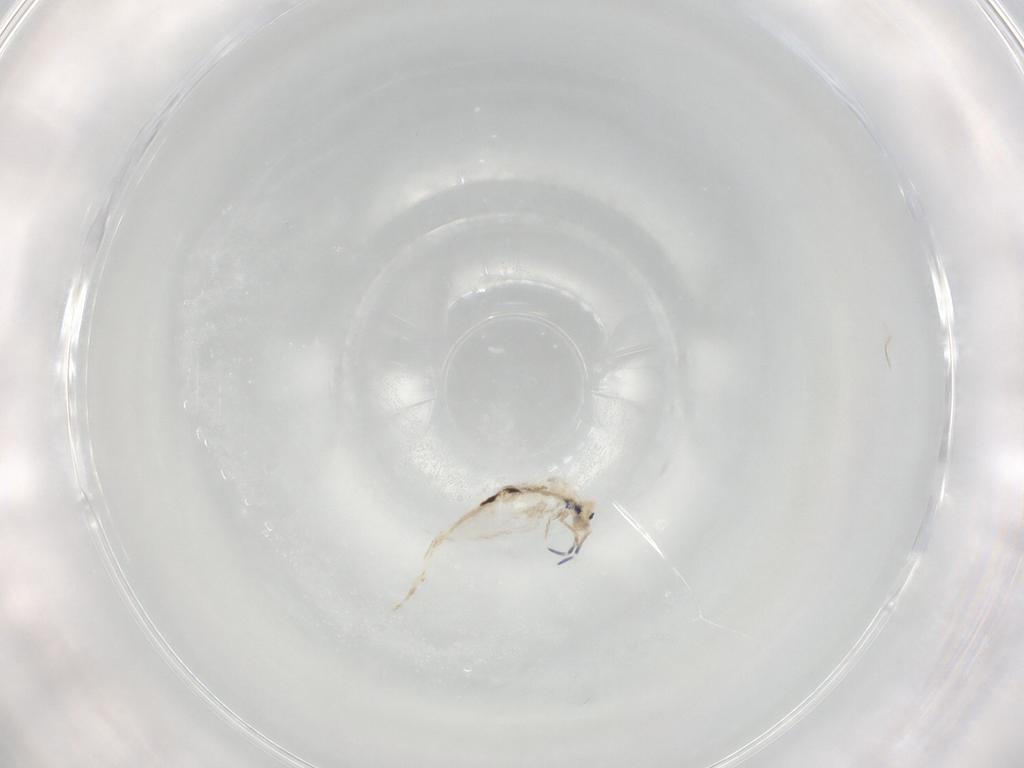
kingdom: Animalia
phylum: Arthropoda
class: Collembola
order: Entomobryomorpha
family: Entomobryidae
